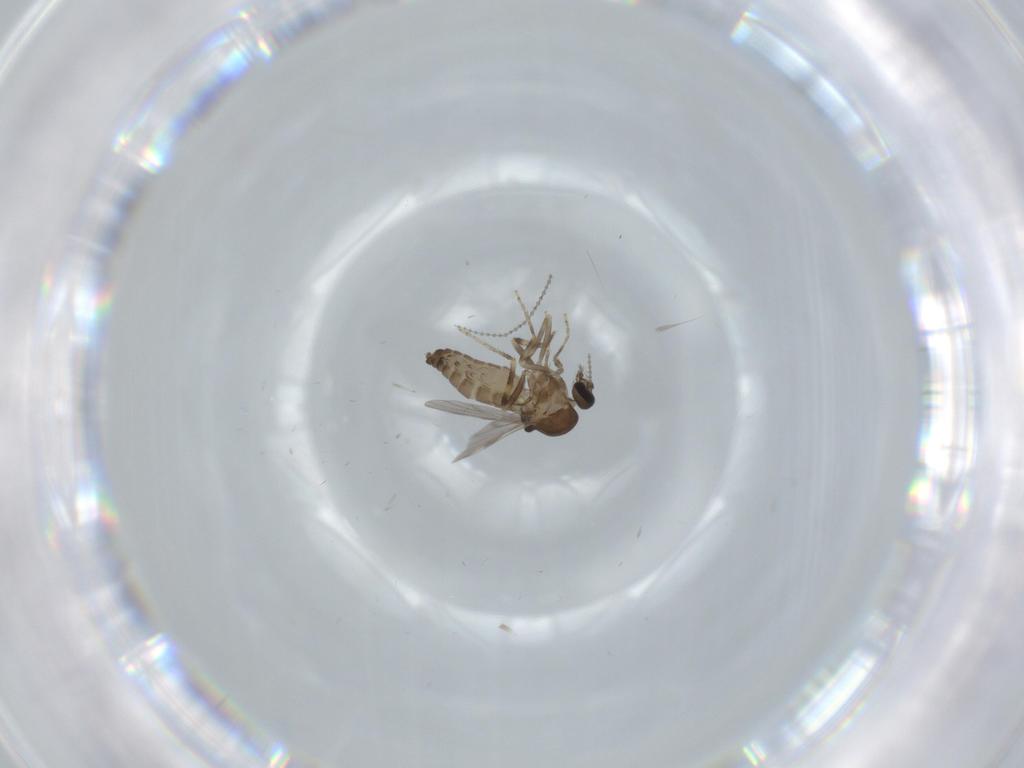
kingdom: Animalia
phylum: Arthropoda
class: Insecta
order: Diptera
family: Ceratopogonidae
